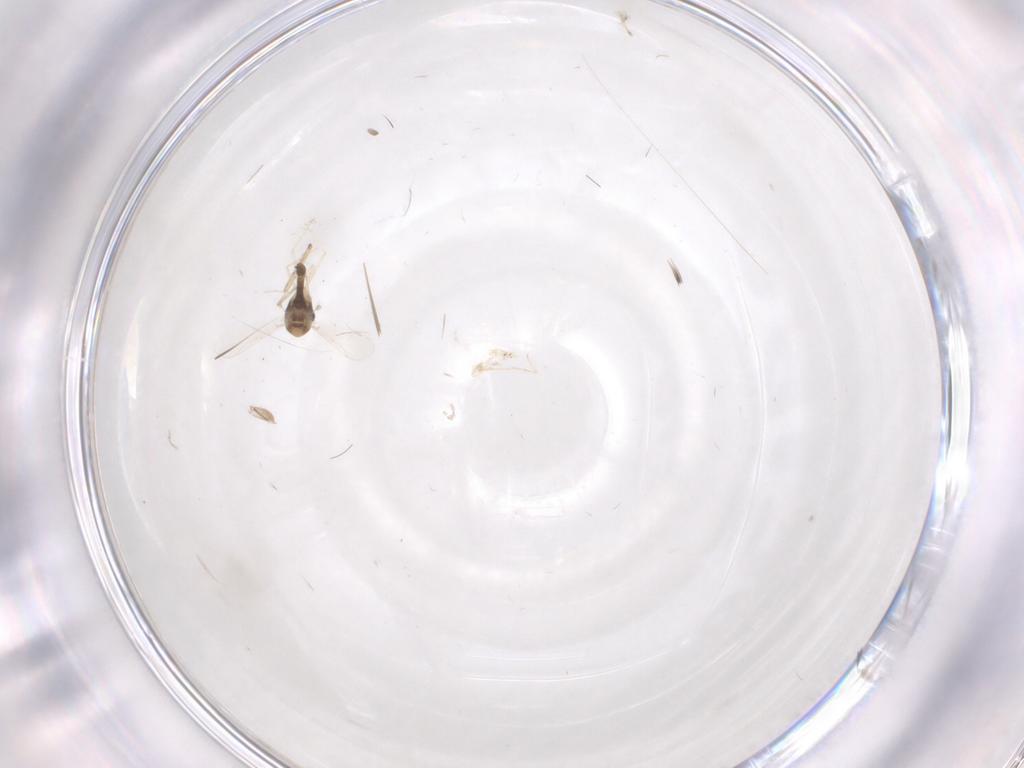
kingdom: Animalia
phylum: Arthropoda
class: Insecta
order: Diptera
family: Chironomidae
